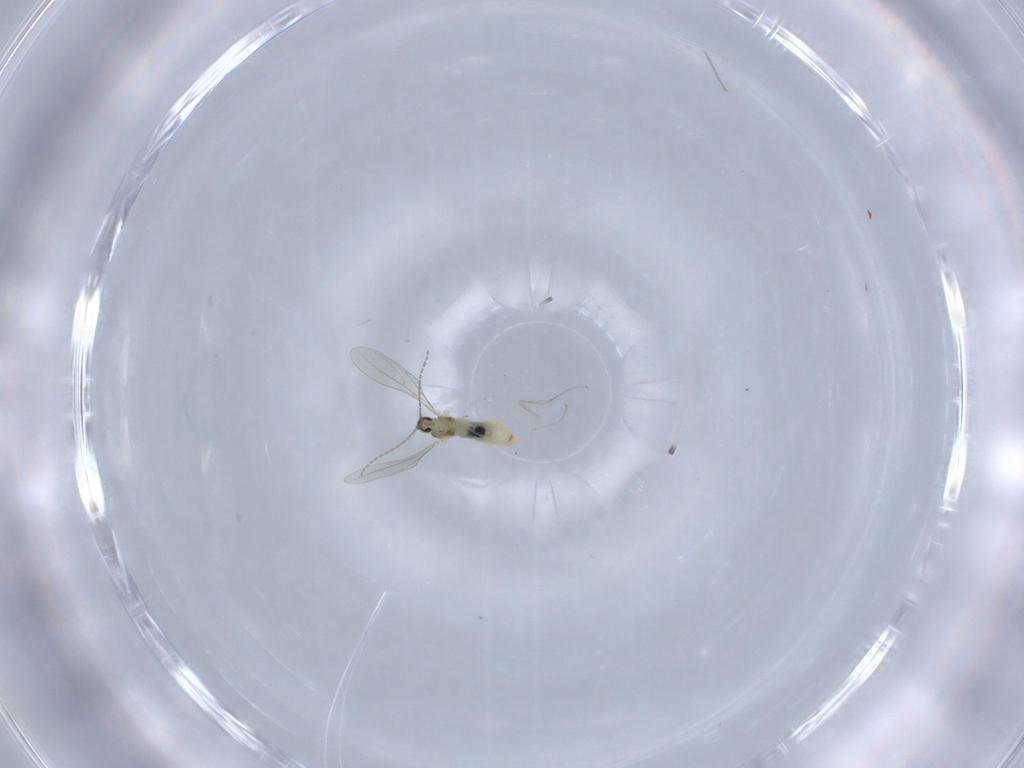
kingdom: Animalia
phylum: Arthropoda
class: Insecta
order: Diptera
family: Cecidomyiidae
